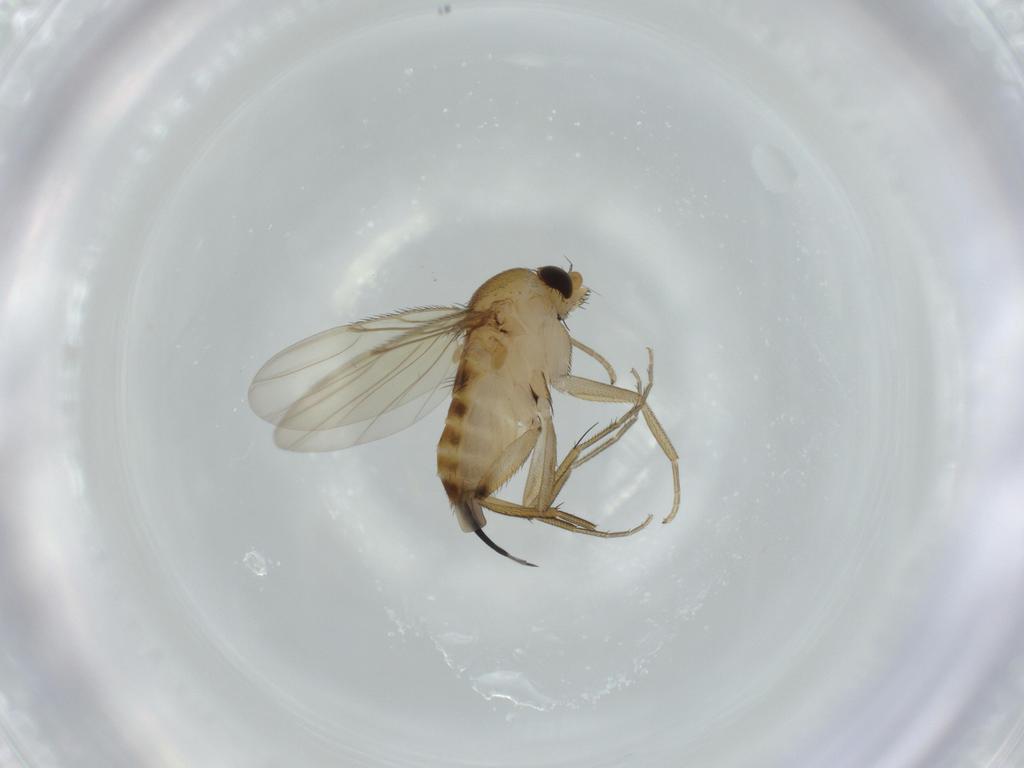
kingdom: Animalia
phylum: Arthropoda
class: Insecta
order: Diptera
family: Phoridae
